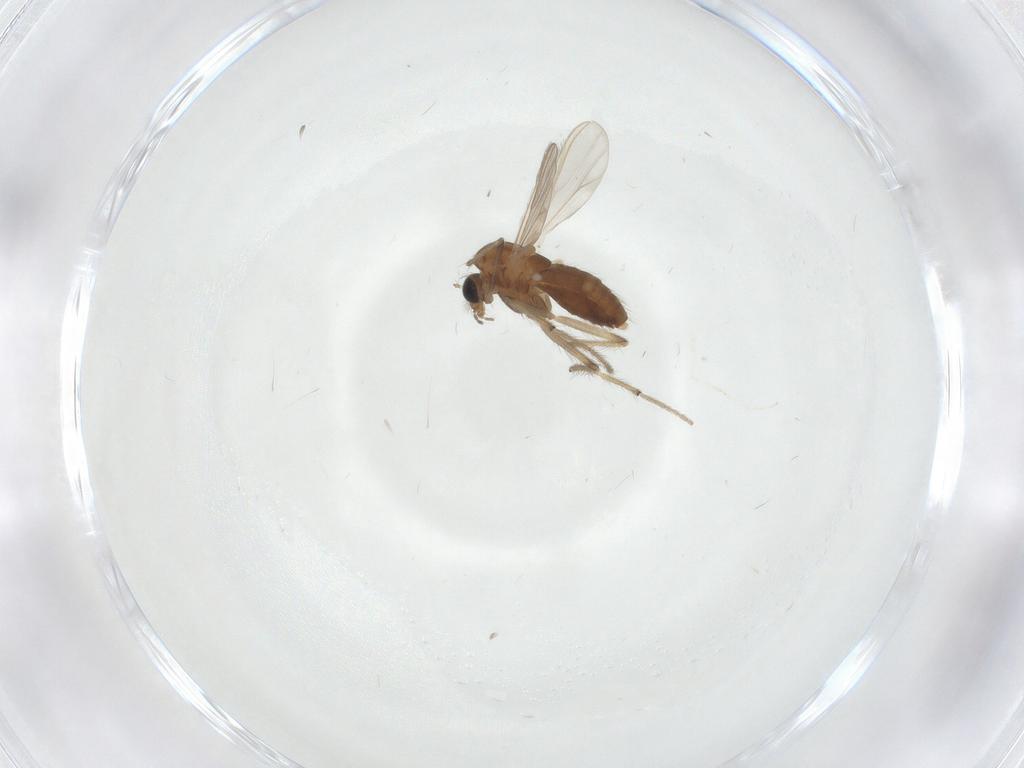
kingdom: Animalia
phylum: Arthropoda
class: Insecta
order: Diptera
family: Chironomidae
